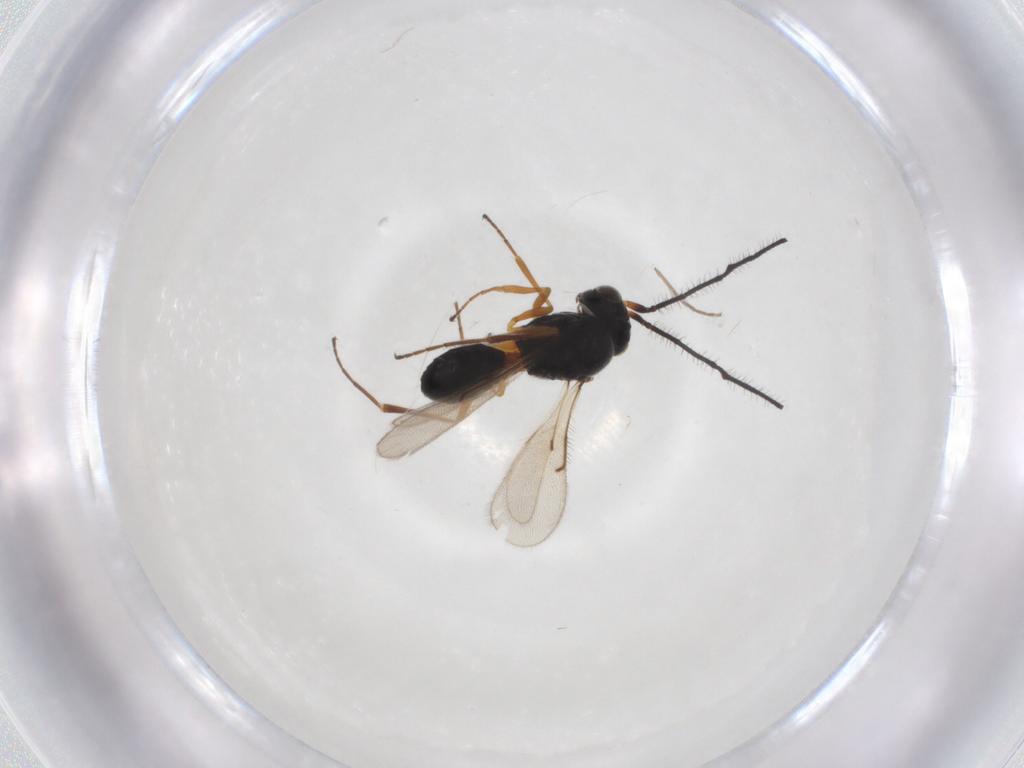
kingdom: Animalia
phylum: Arthropoda
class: Insecta
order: Hymenoptera
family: Scelionidae
